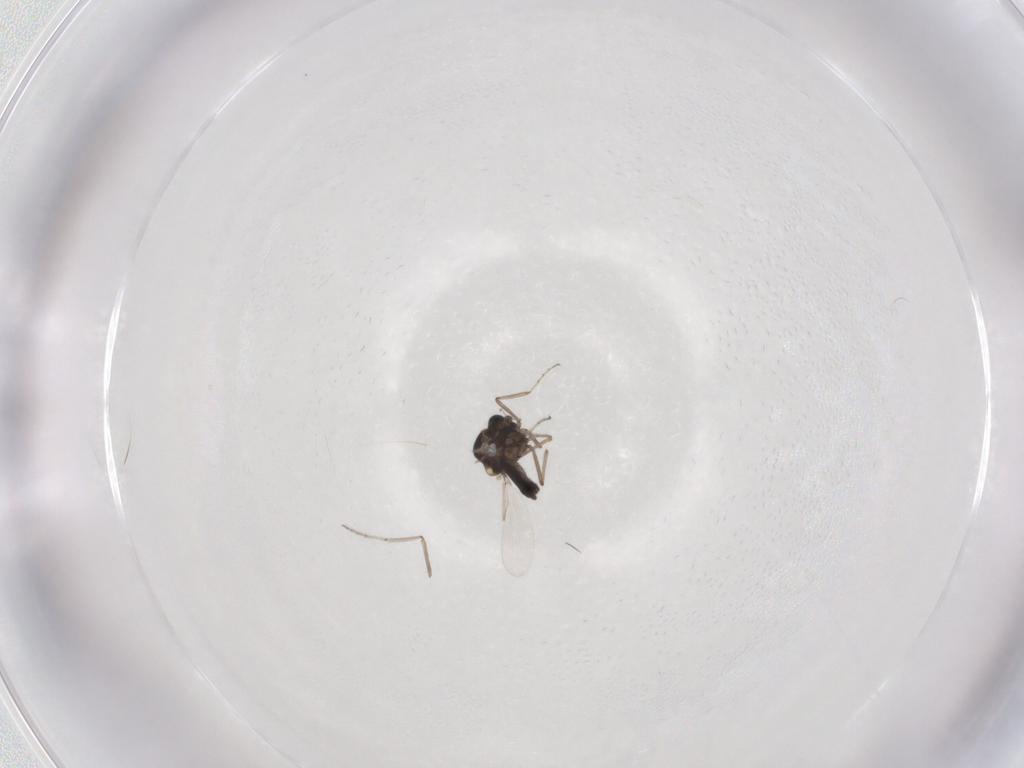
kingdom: Animalia
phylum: Arthropoda
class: Insecta
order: Diptera
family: Ceratopogonidae
